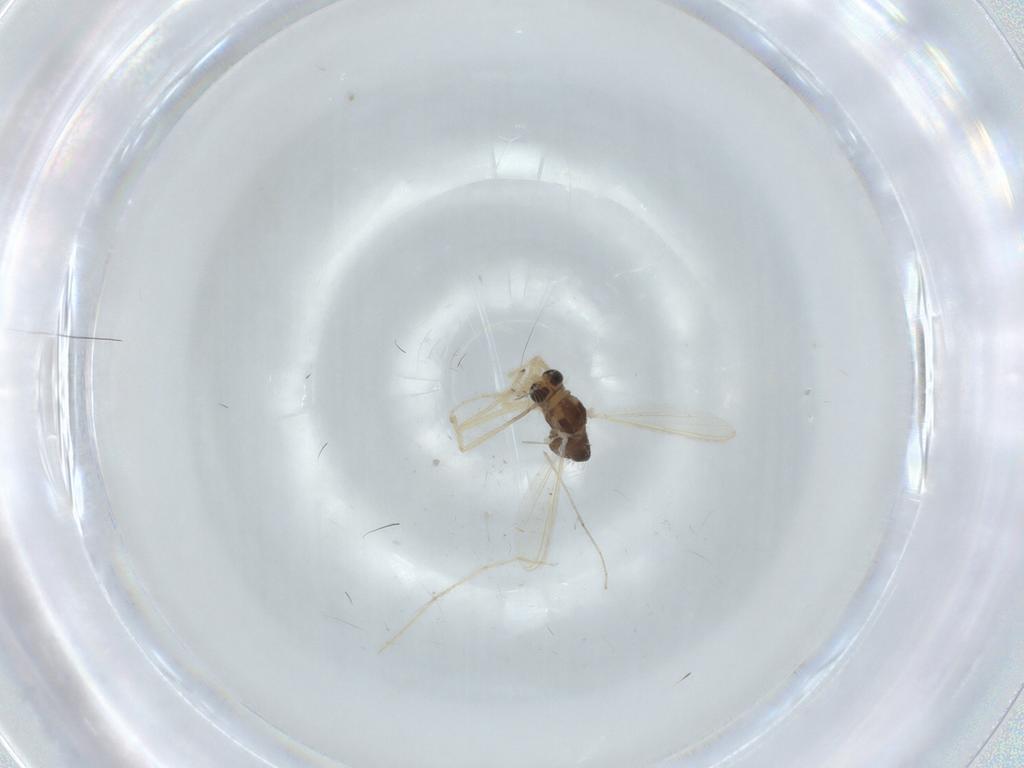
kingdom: Animalia
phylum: Arthropoda
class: Insecta
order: Diptera
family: Chironomidae
